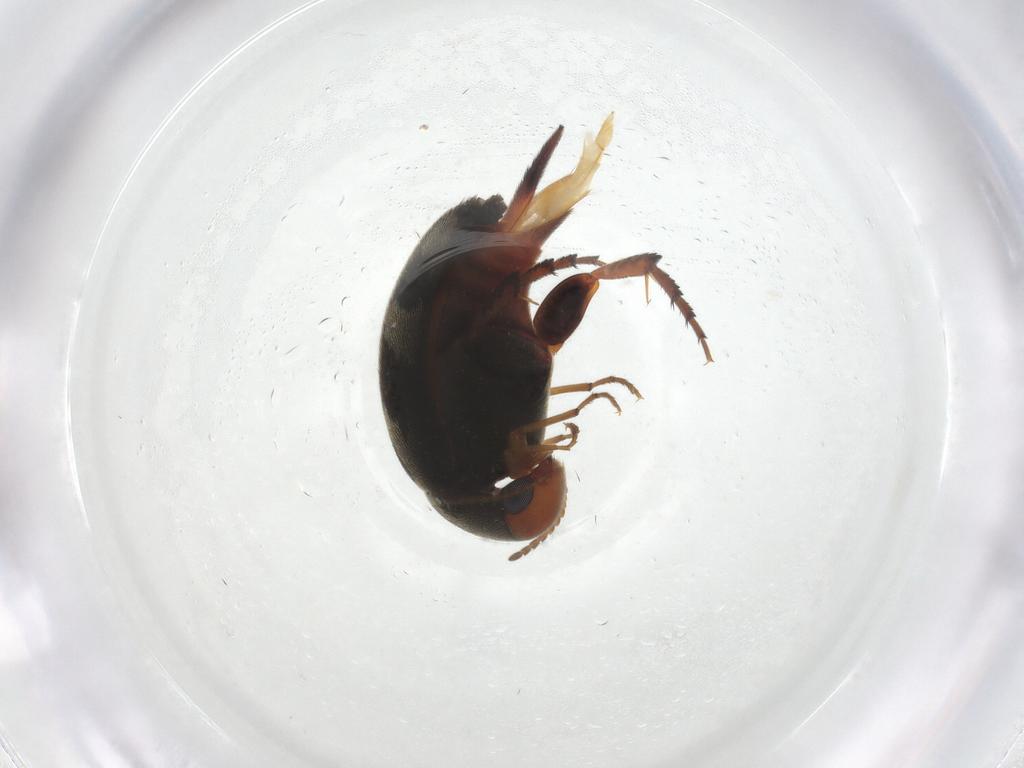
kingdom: Animalia
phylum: Arthropoda
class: Insecta
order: Coleoptera
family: Mordellidae
